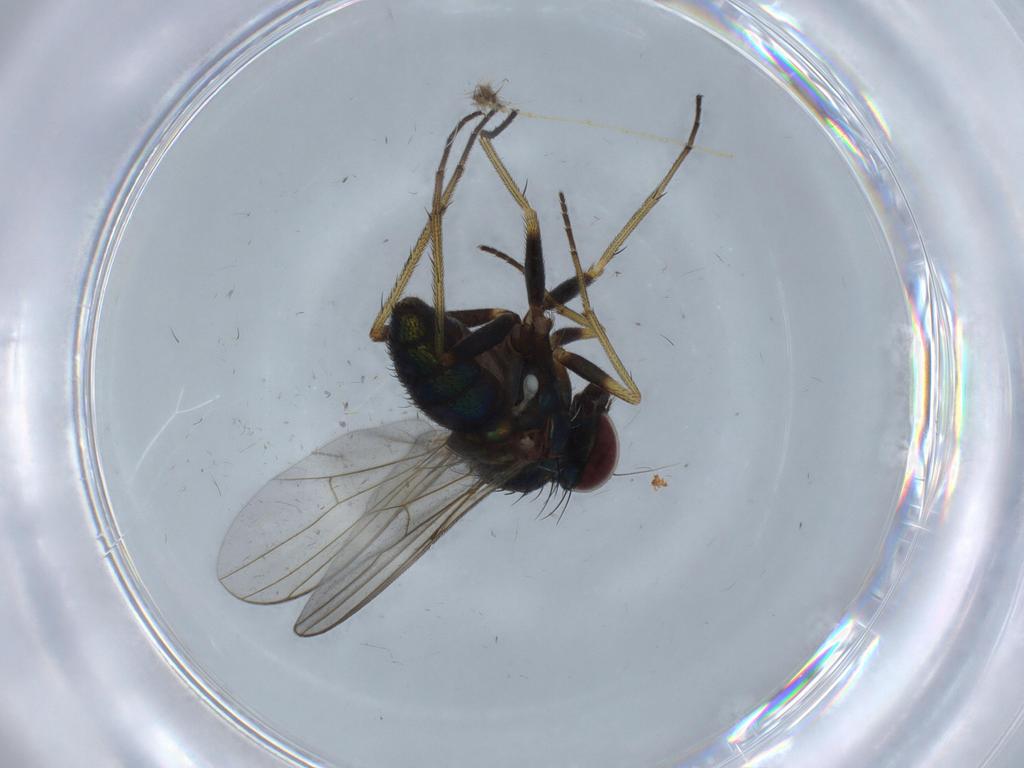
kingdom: Animalia
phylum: Arthropoda
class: Insecta
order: Diptera
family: Dolichopodidae
